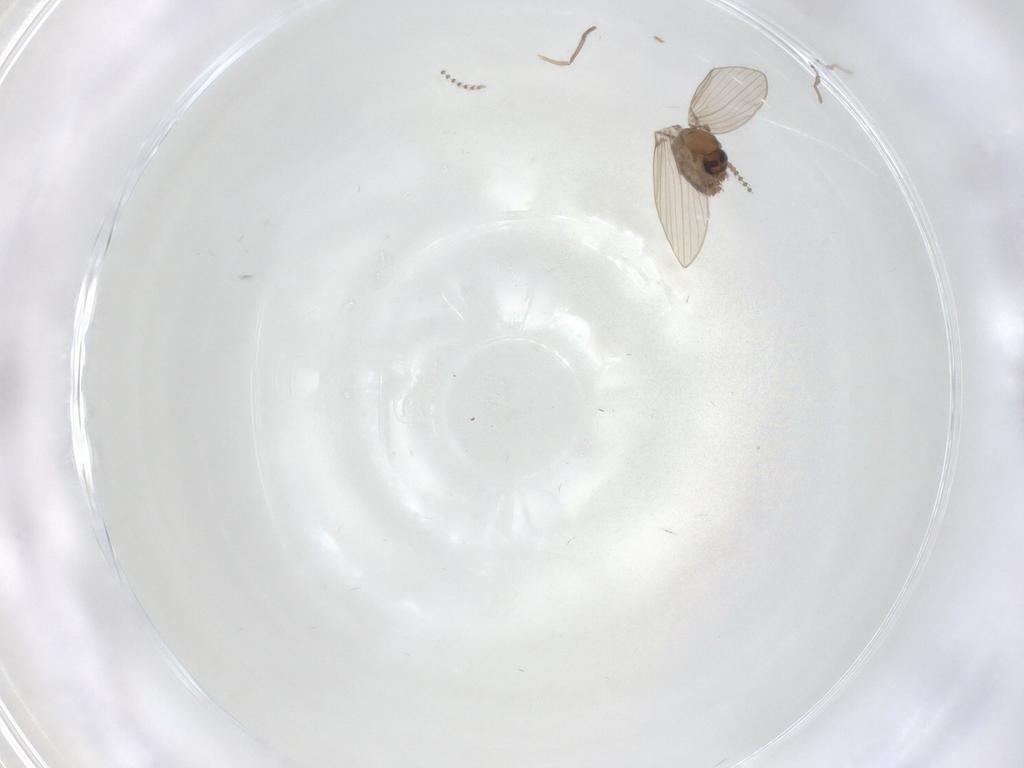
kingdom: Animalia
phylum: Arthropoda
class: Insecta
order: Diptera
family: Psychodidae
